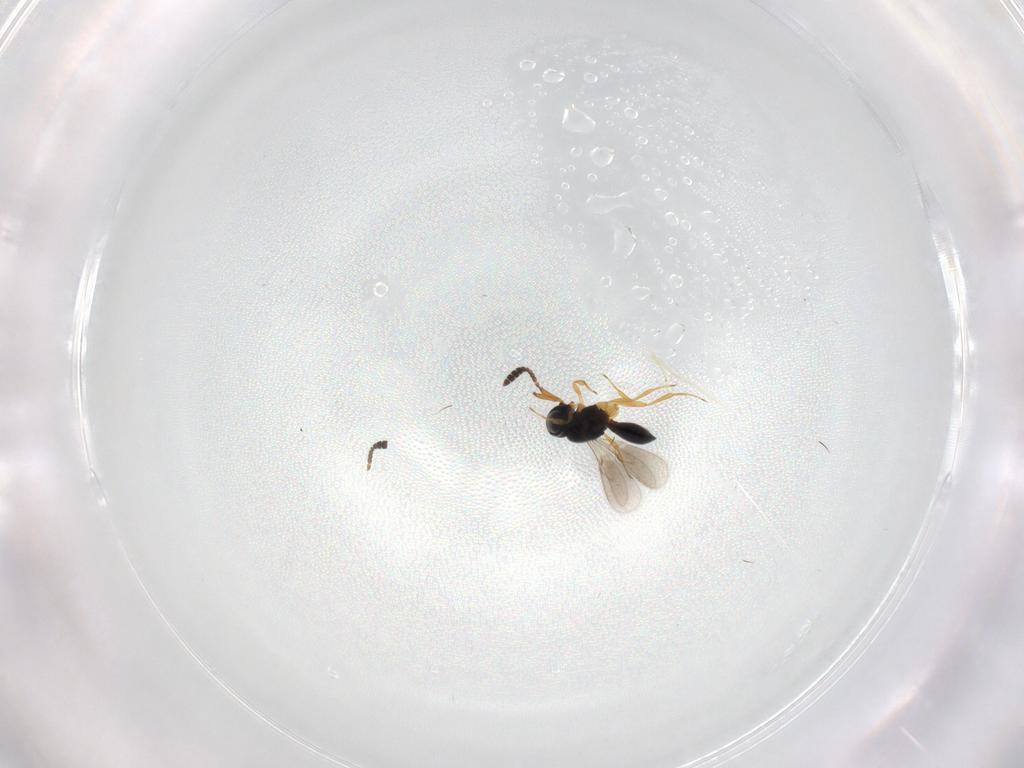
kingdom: Animalia
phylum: Arthropoda
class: Insecta
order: Hymenoptera
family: Scelionidae
